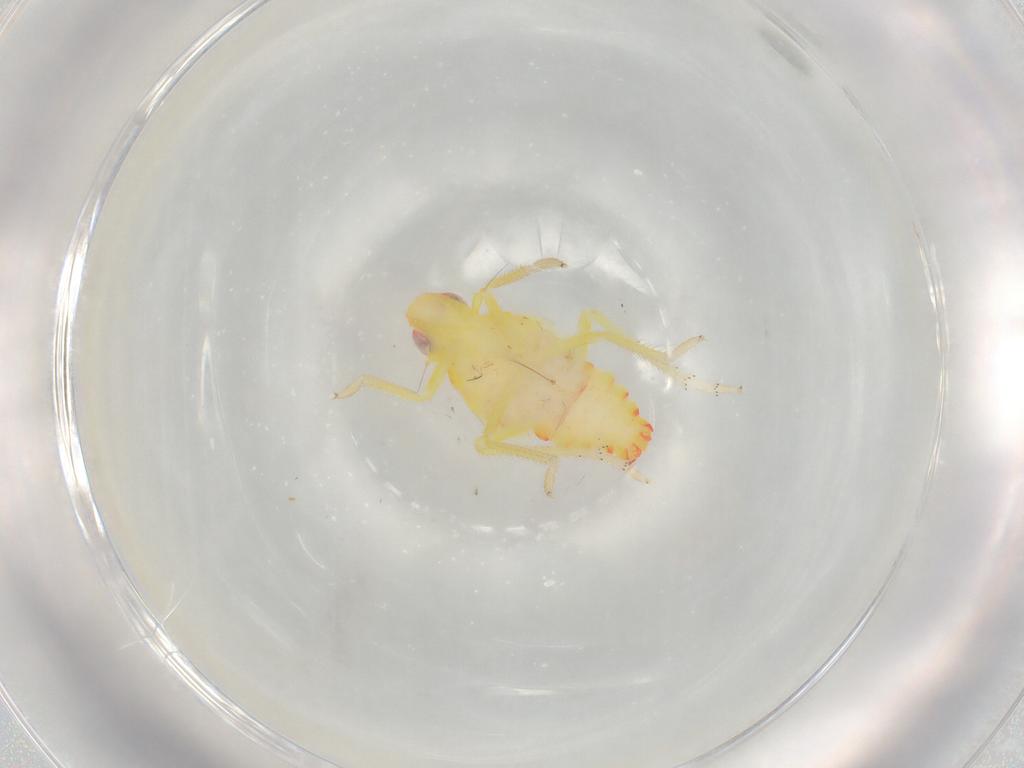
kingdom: Animalia
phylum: Arthropoda
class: Insecta
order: Hemiptera
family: Tropiduchidae
